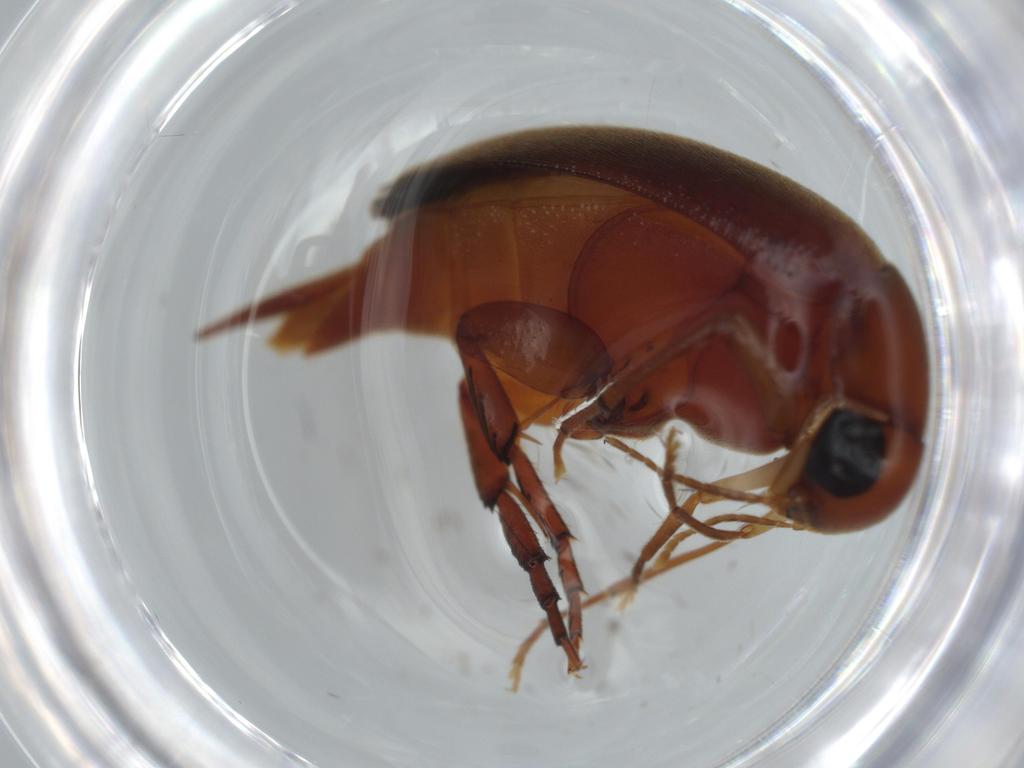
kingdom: Animalia
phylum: Arthropoda
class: Insecta
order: Coleoptera
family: Mordellidae
